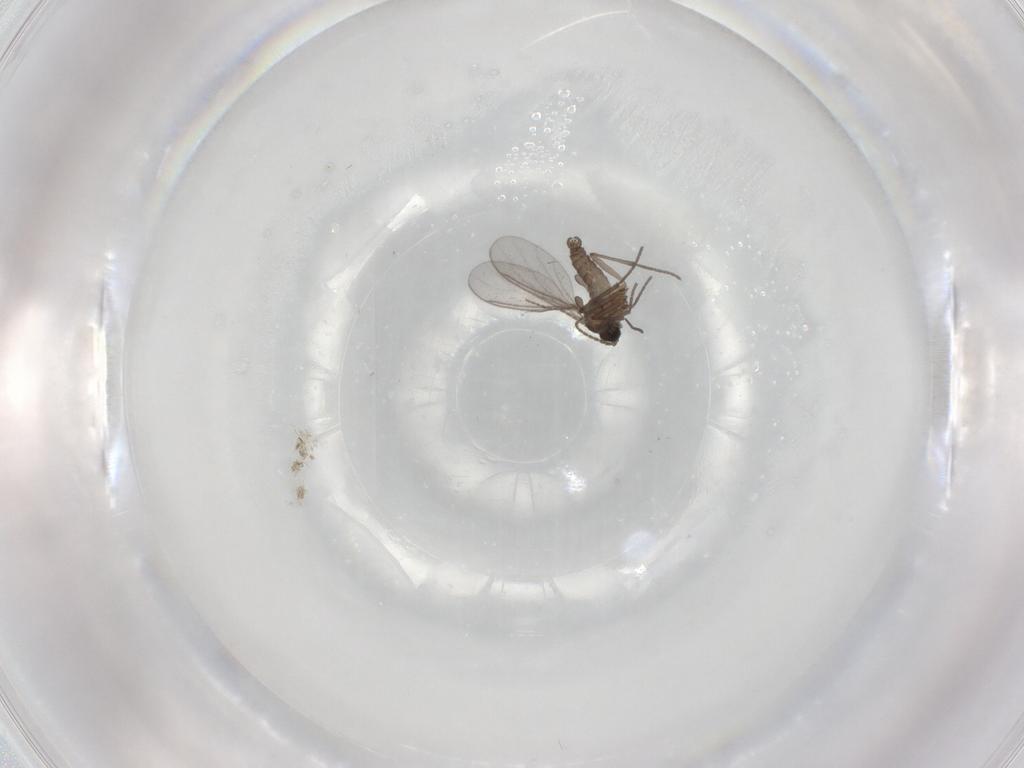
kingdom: Animalia
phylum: Arthropoda
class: Insecta
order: Diptera
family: Sciaridae
